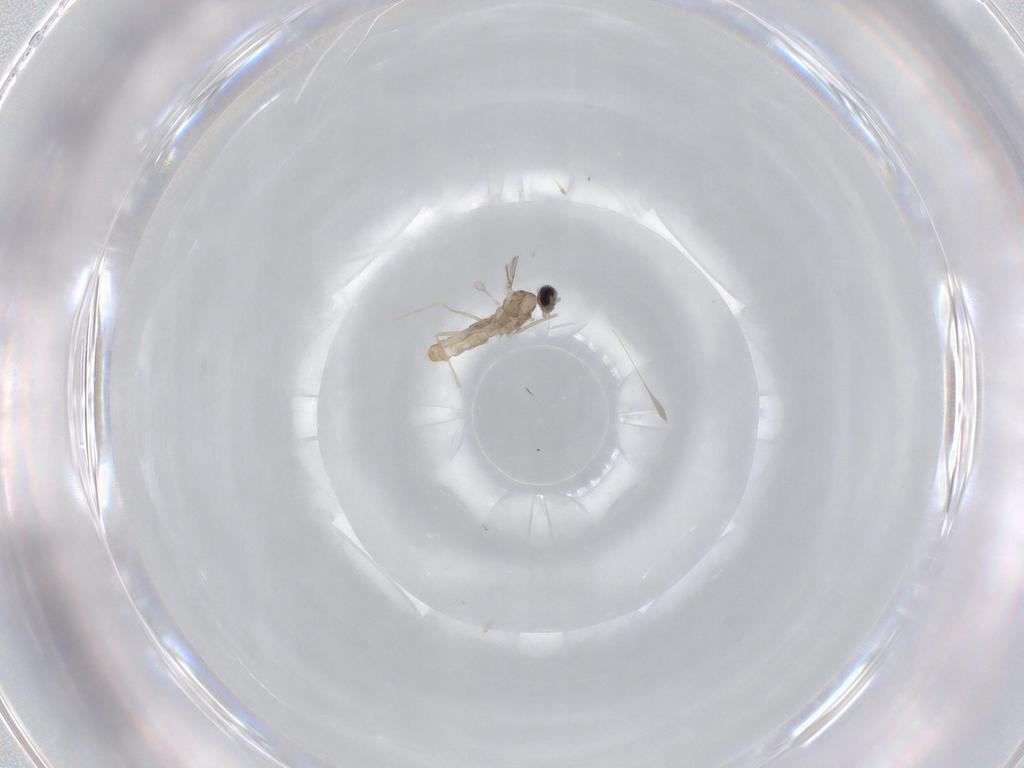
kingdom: Animalia
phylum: Arthropoda
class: Insecta
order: Diptera
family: Cecidomyiidae
